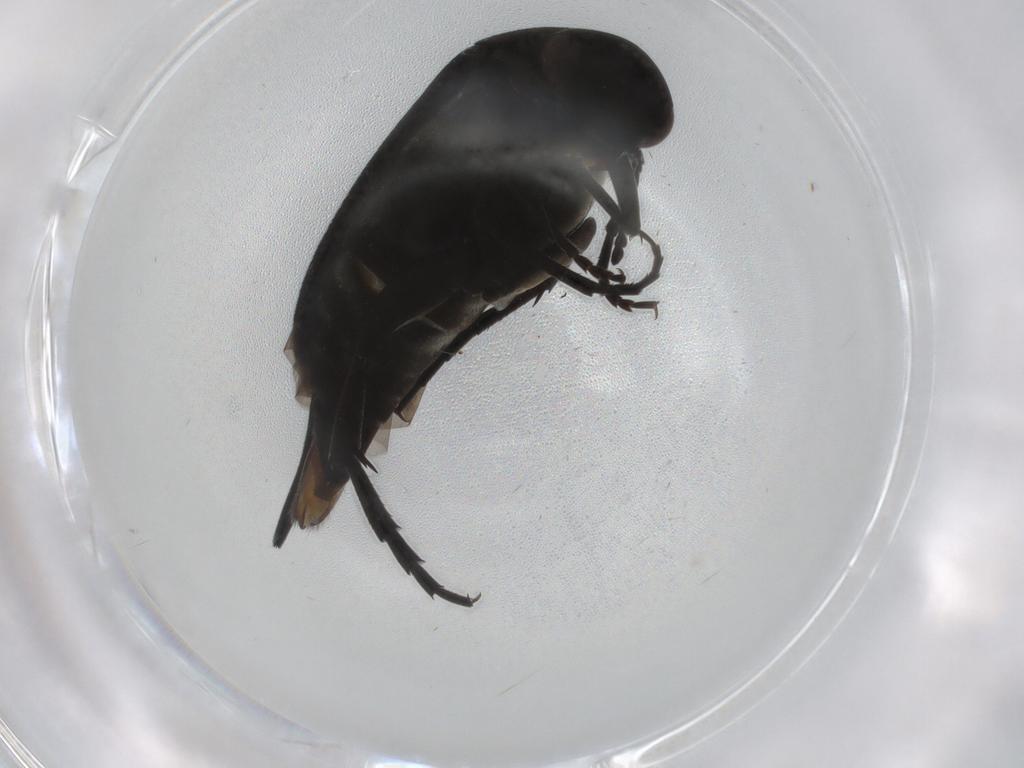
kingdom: Animalia
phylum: Arthropoda
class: Insecta
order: Coleoptera
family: Mordellidae
